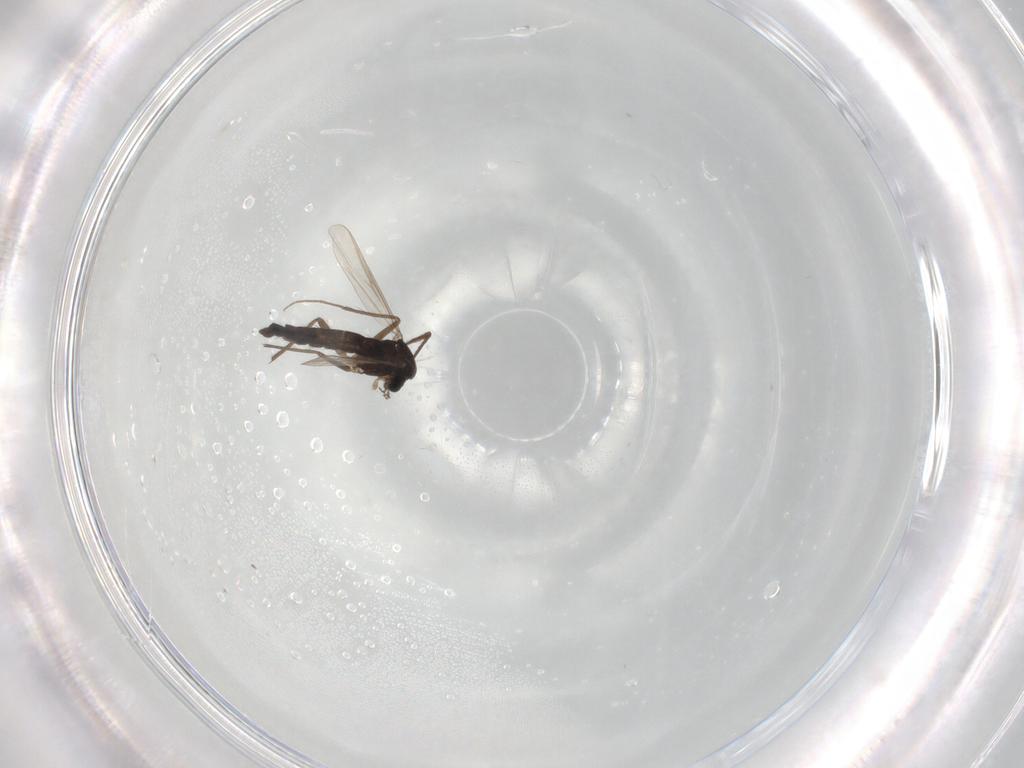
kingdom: Animalia
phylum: Arthropoda
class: Insecta
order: Diptera
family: Chironomidae
